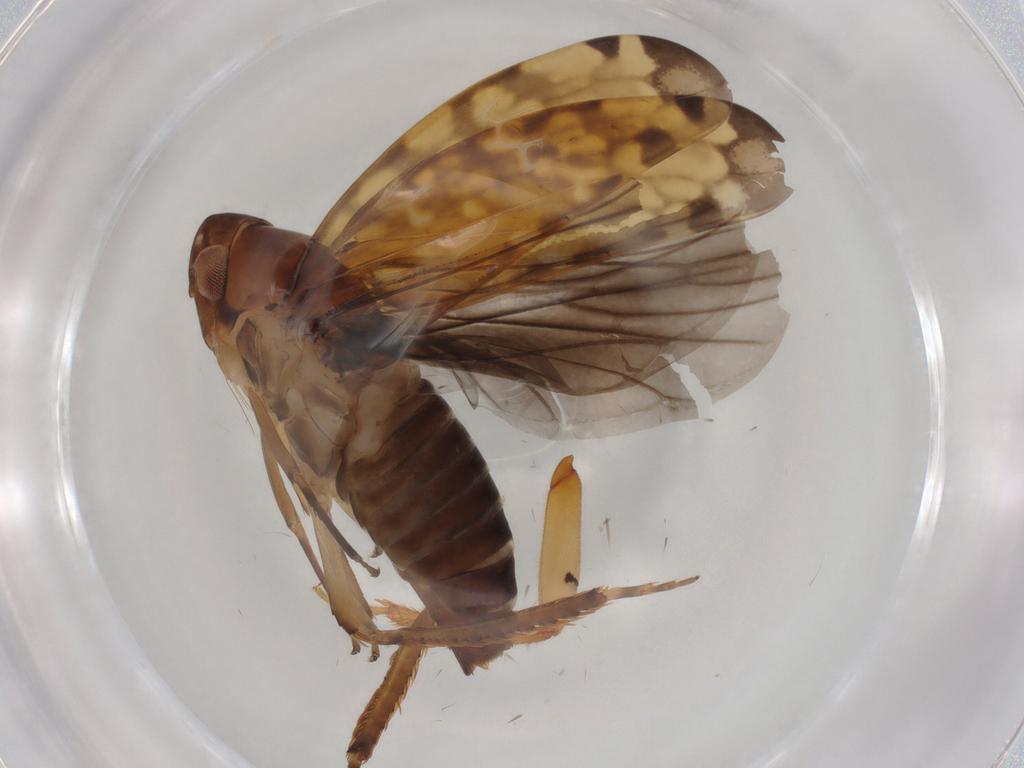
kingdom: Animalia
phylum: Arthropoda
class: Insecta
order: Hemiptera
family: Cicadellidae
